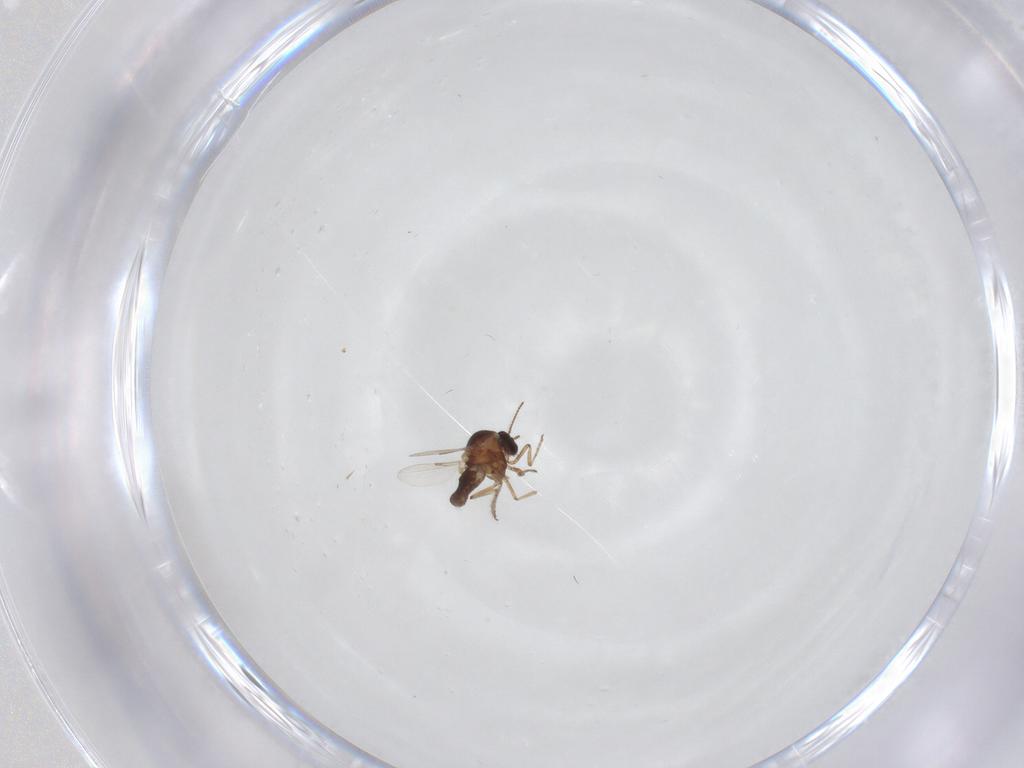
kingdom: Animalia
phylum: Arthropoda
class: Insecta
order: Diptera
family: Ceratopogonidae
